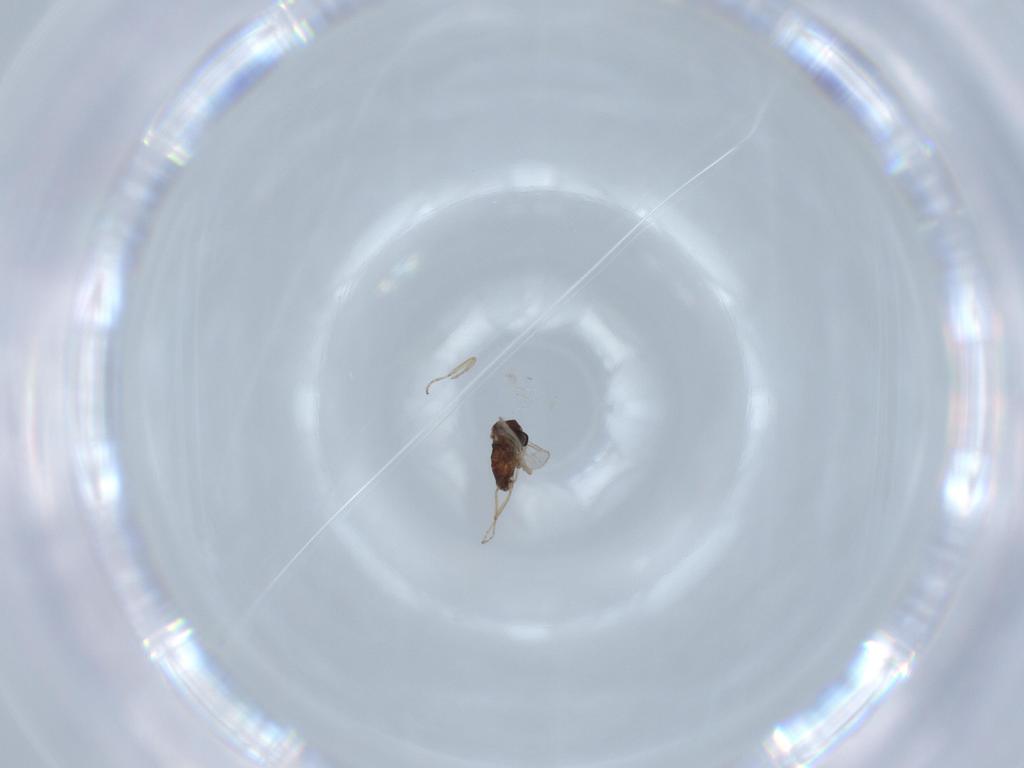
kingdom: Animalia
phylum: Arthropoda
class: Insecta
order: Diptera
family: Ceratopogonidae
